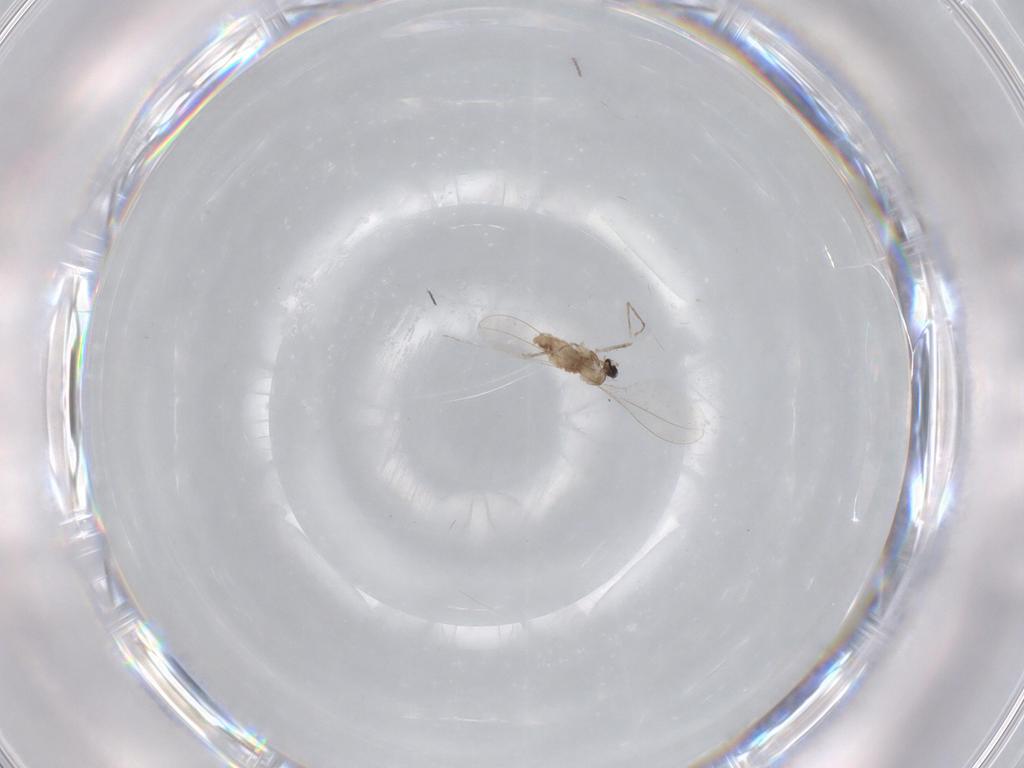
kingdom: Animalia
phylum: Arthropoda
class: Insecta
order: Diptera
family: Cecidomyiidae
